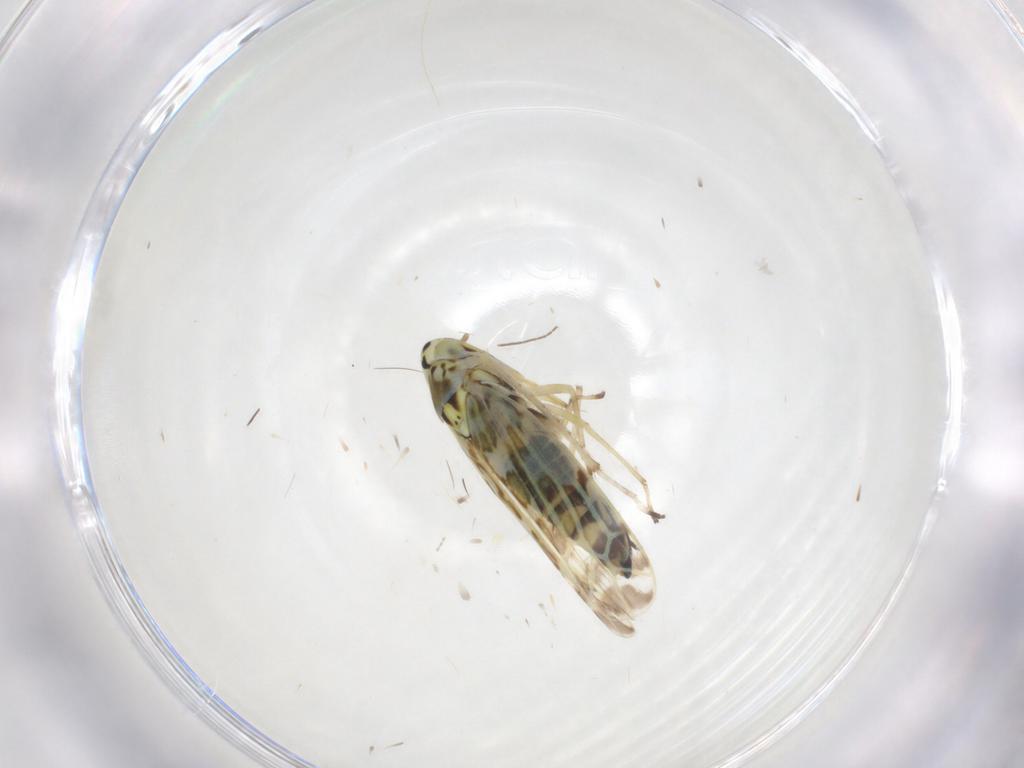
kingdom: Animalia
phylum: Arthropoda
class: Insecta
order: Hemiptera
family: Cicadellidae
